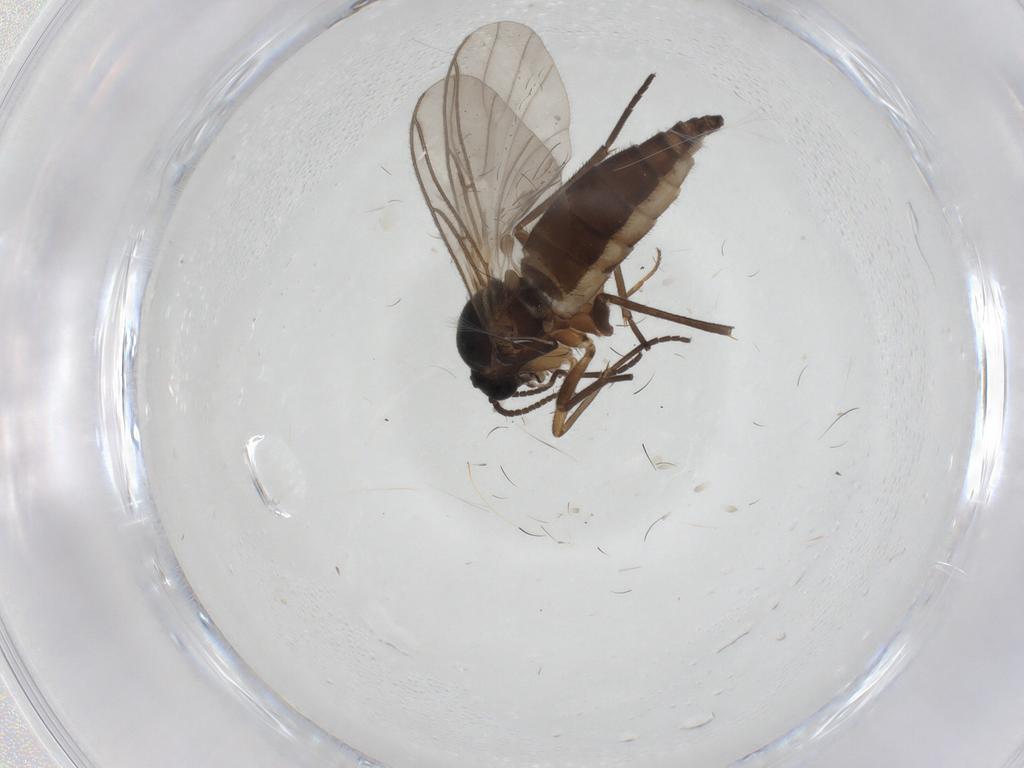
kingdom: Animalia
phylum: Arthropoda
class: Insecta
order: Diptera
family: Sciaridae
